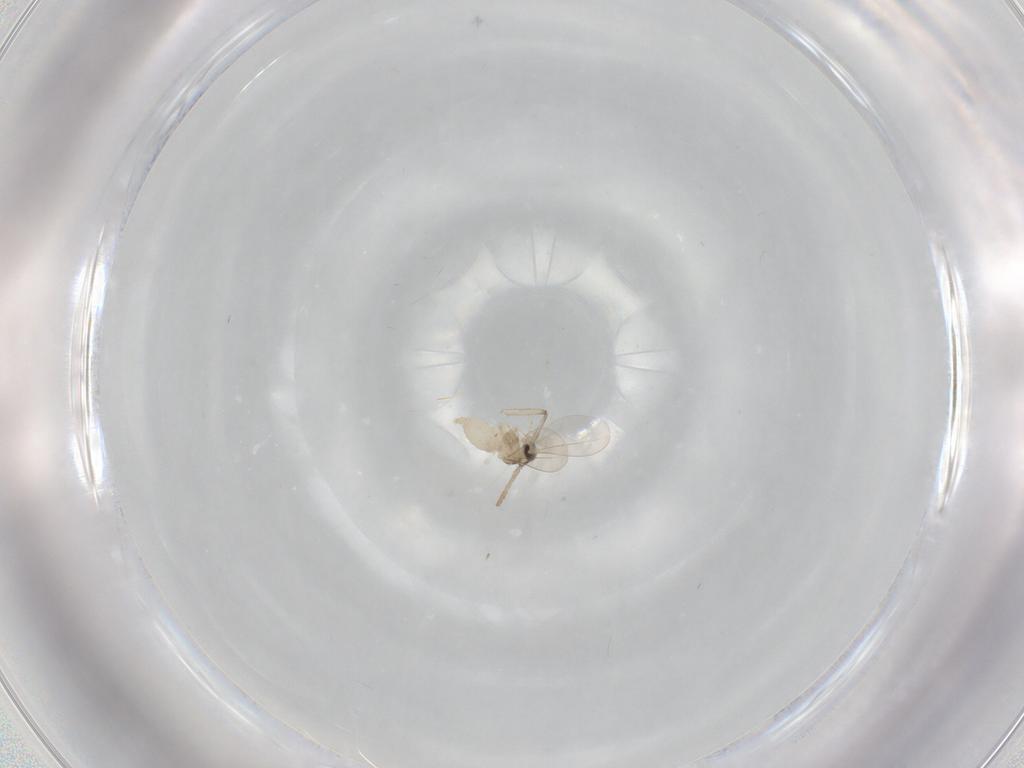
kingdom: Animalia
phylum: Arthropoda
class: Insecta
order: Diptera
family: Cecidomyiidae
